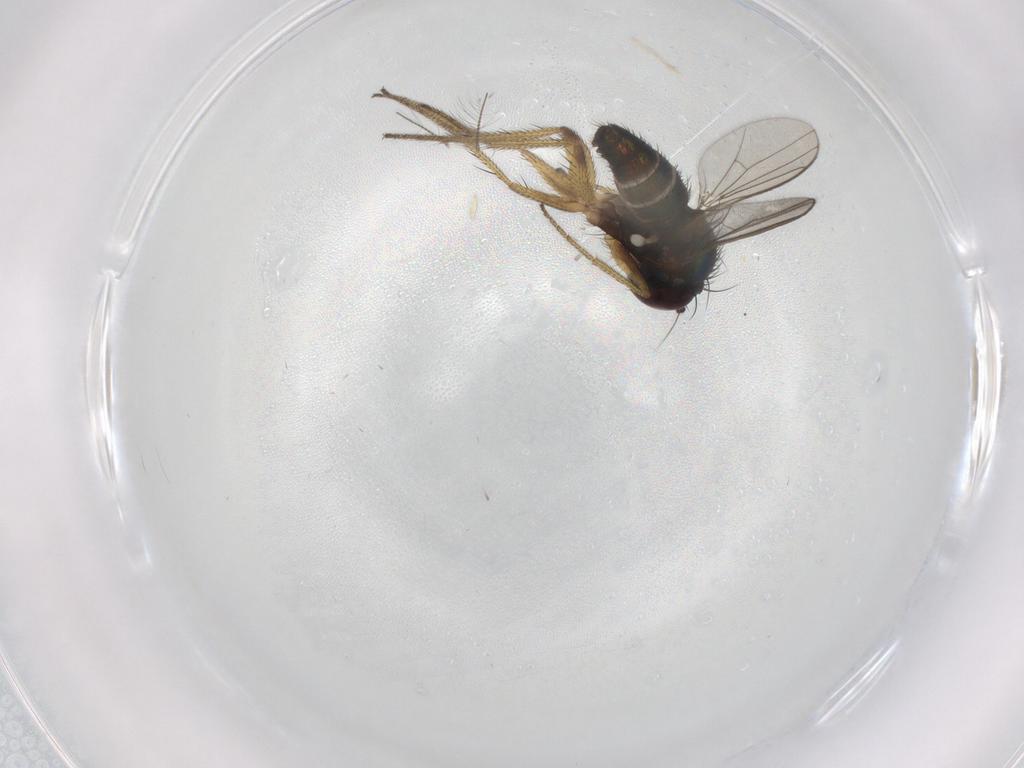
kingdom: Animalia
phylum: Arthropoda
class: Insecta
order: Diptera
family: Chironomidae
